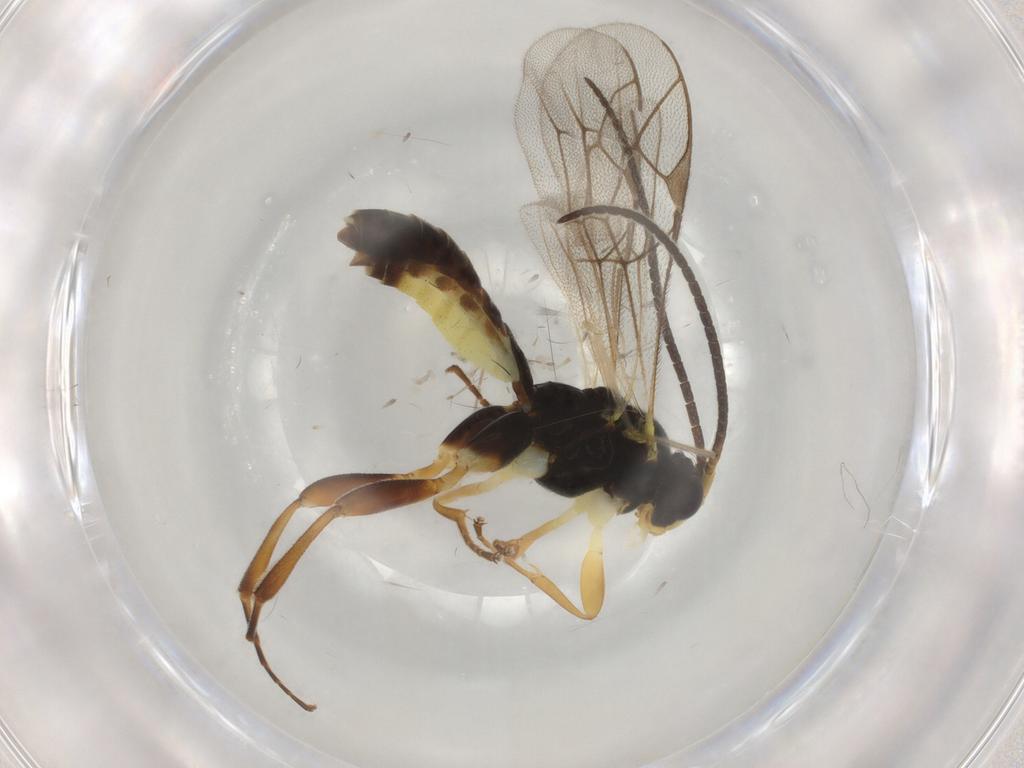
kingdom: Animalia
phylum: Arthropoda
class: Insecta
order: Hymenoptera
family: Ichneumonidae
